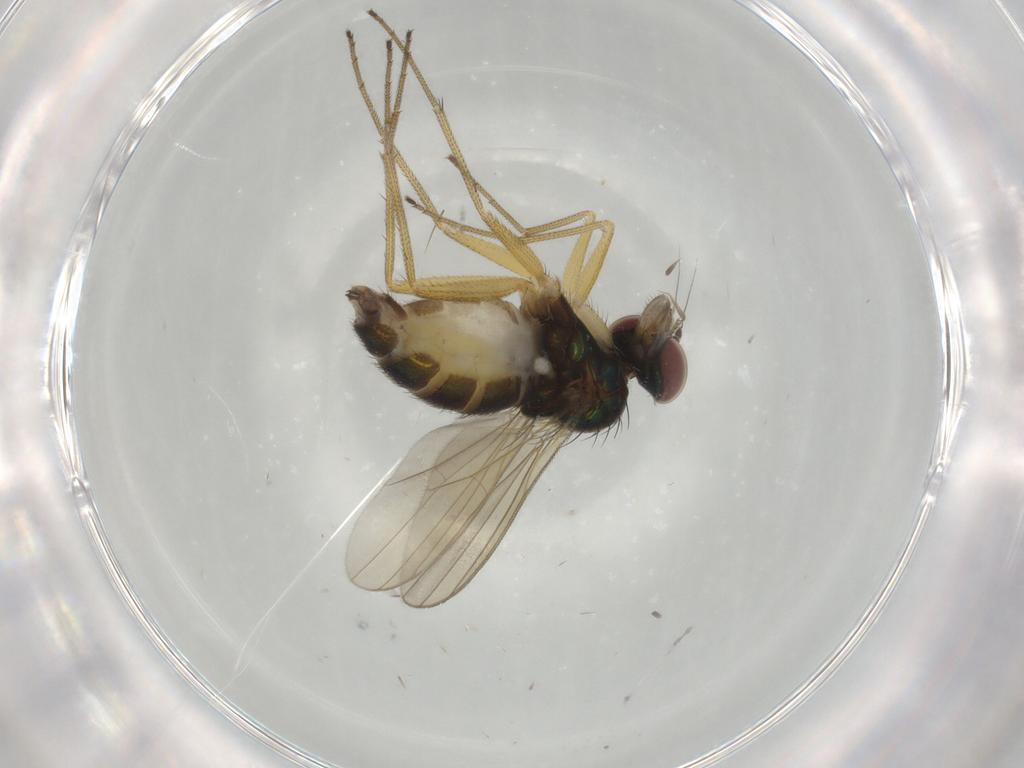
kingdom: Animalia
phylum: Arthropoda
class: Insecta
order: Diptera
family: Dolichopodidae
